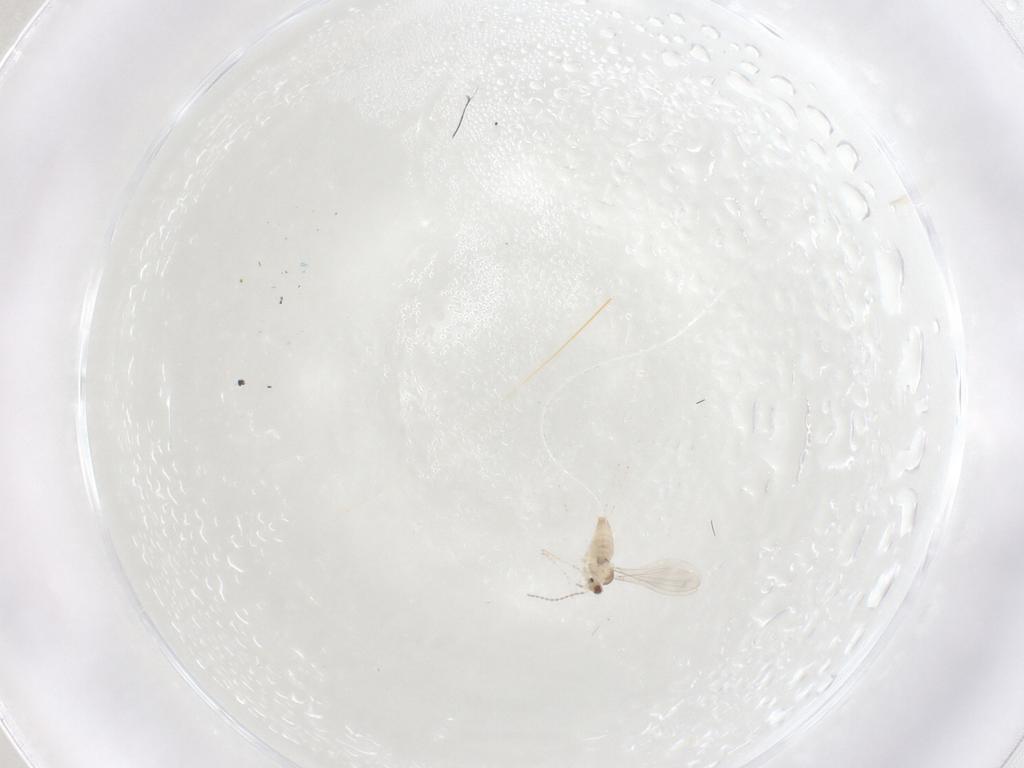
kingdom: Animalia
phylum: Arthropoda
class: Insecta
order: Diptera
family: Cecidomyiidae
